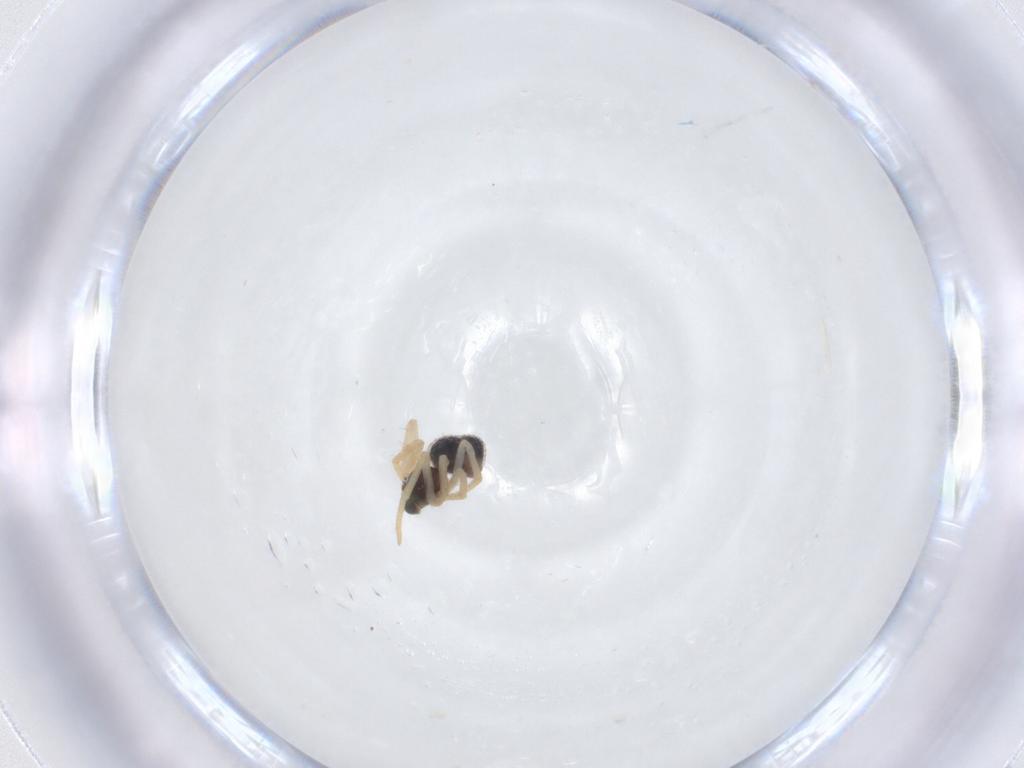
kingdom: Animalia
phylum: Arthropoda
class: Arachnida
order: Araneae
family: Theridiidae
